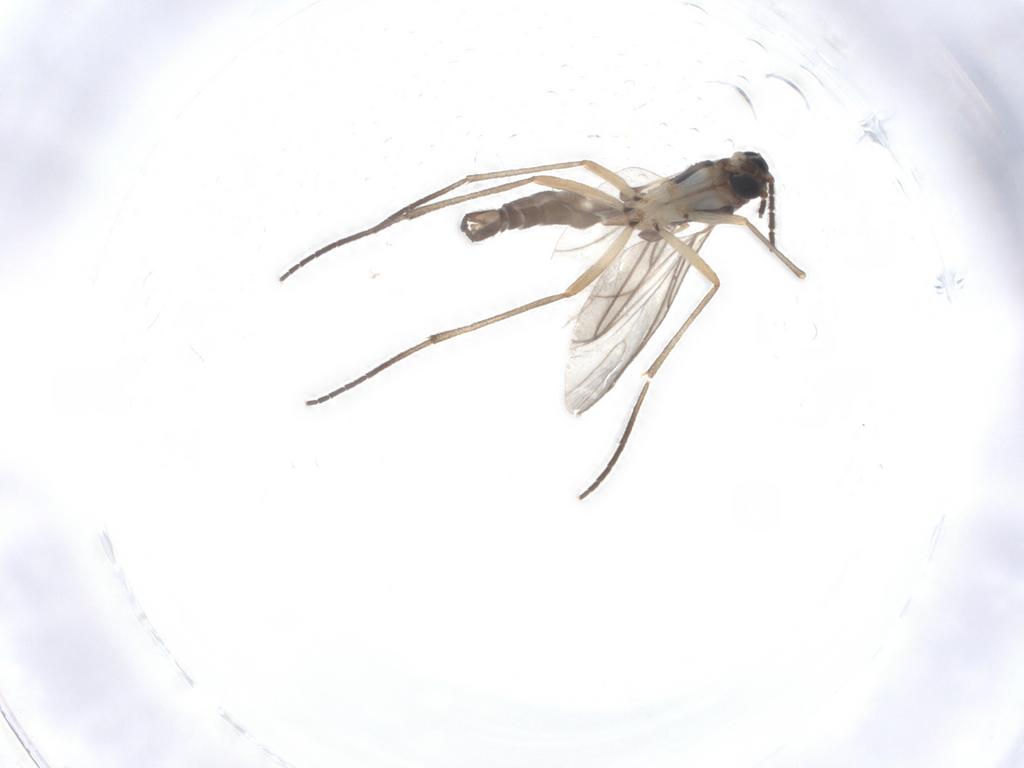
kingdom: Animalia
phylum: Arthropoda
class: Insecta
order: Diptera
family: Sciaridae
